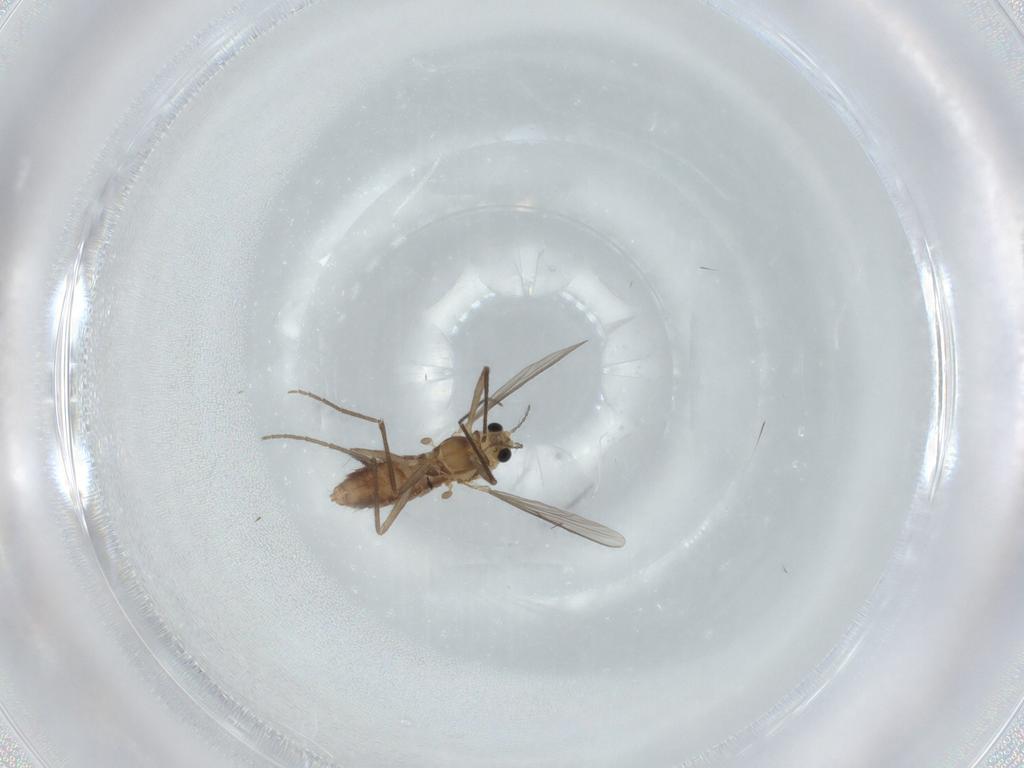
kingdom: Animalia
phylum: Arthropoda
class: Insecta
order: Diptera
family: Chironomidae
